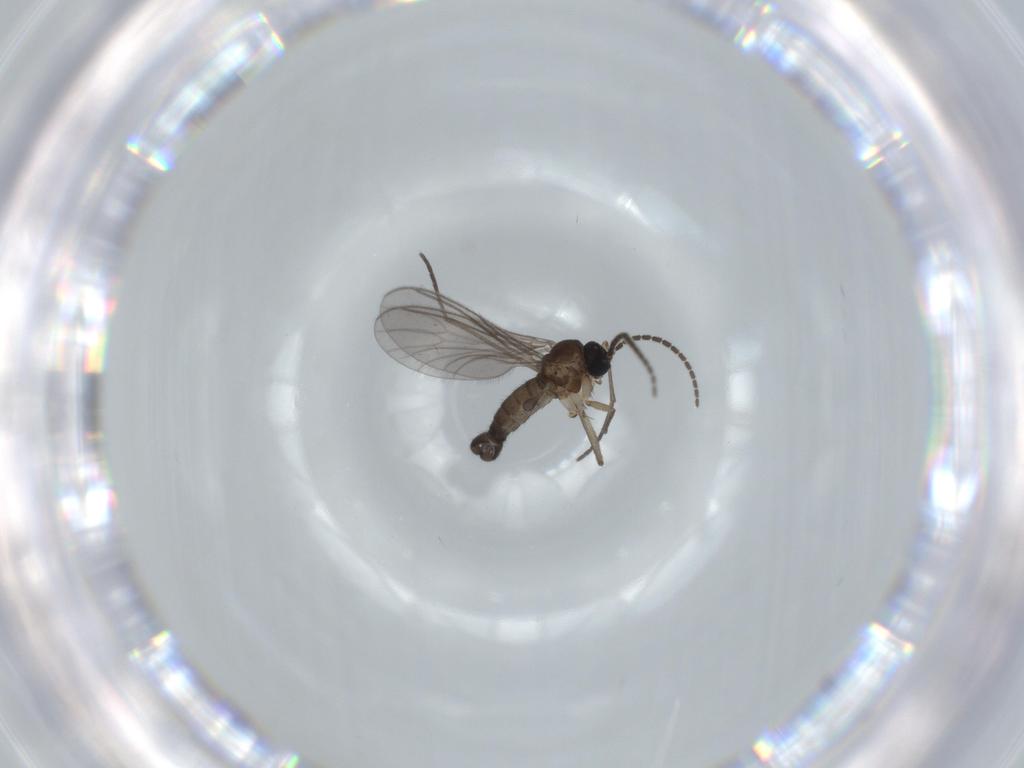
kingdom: Animalia
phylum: Arthropoda
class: Insecta
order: Diptera
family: Sciaridae
